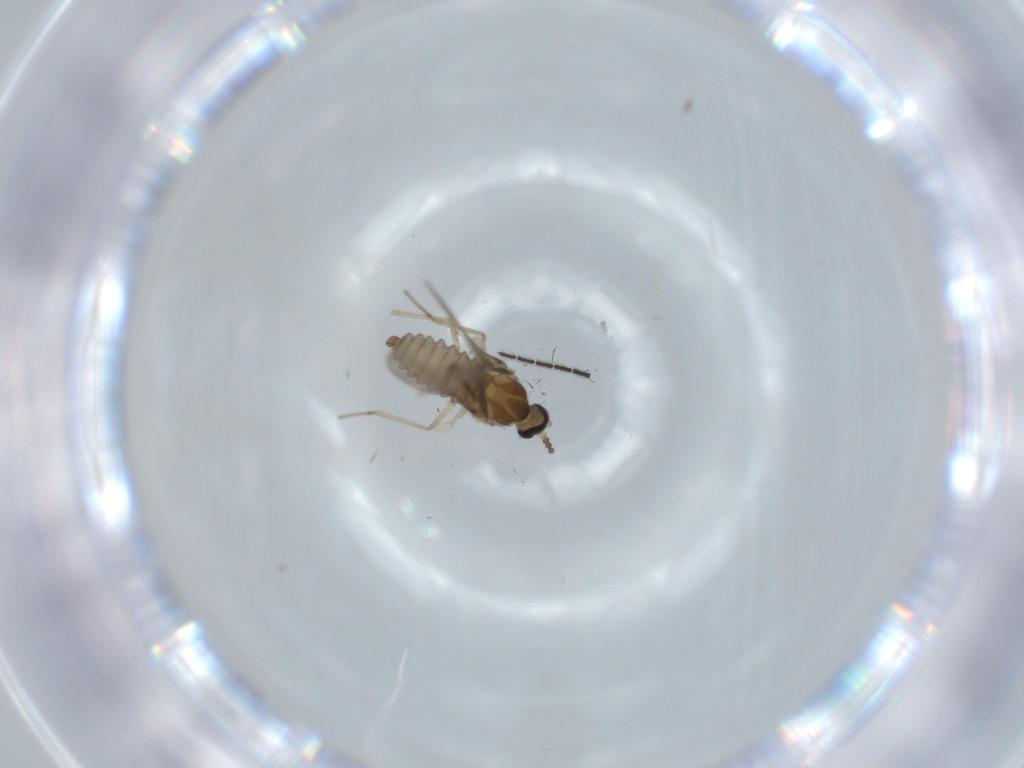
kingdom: Animalia
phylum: Arthropoda
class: Insecta
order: Diptera
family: Cecidomyiidae
